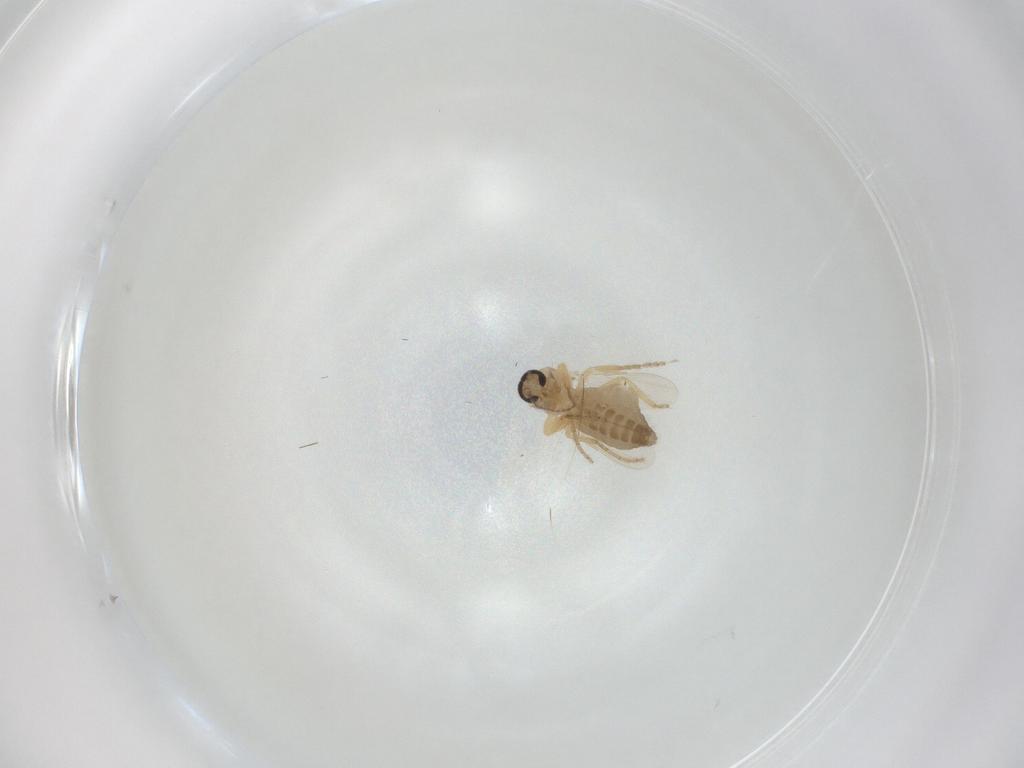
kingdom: Animalia
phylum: Arthropoda
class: Insecta
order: Diptera
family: Ceratopogonidae
